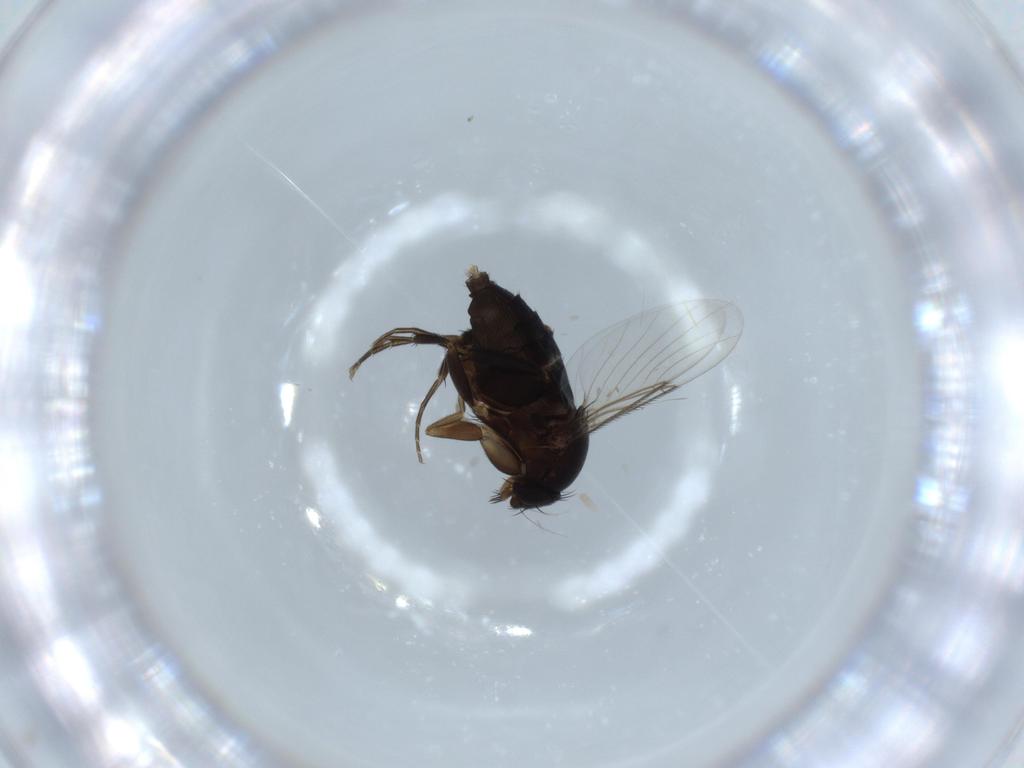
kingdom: Animalia
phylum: Arthropoda
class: Insecta
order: Diptera
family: Phoridae
